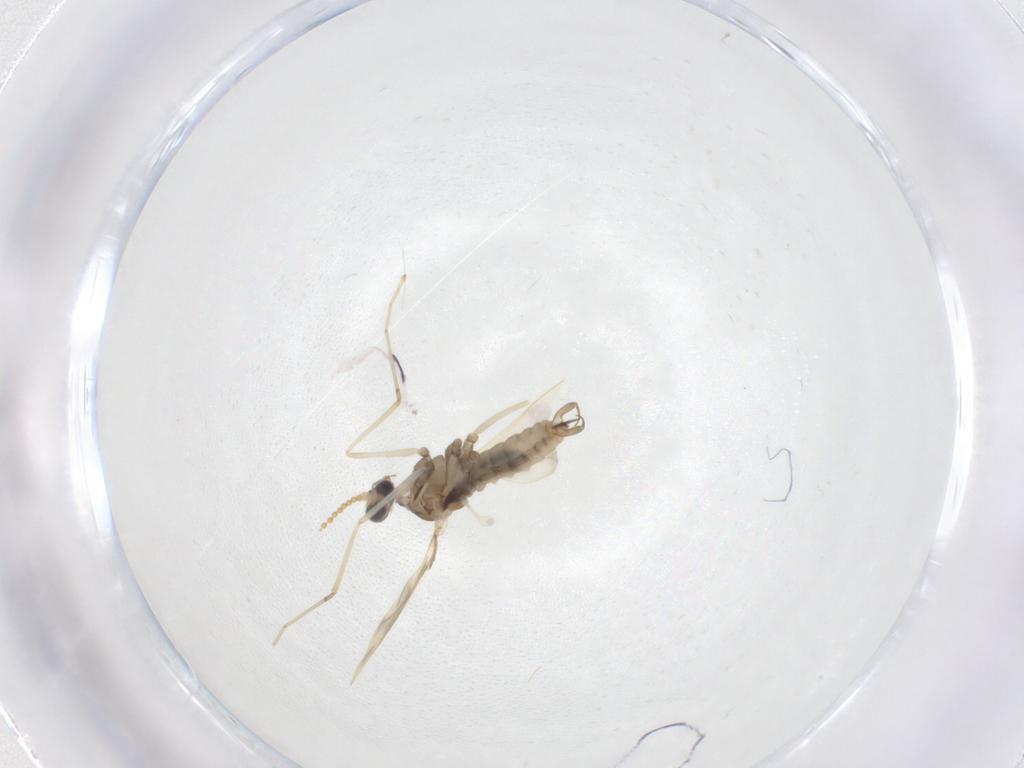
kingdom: Animalia
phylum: Arthropoda
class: Insecta
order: Diptera
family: Cecidomyiidae
